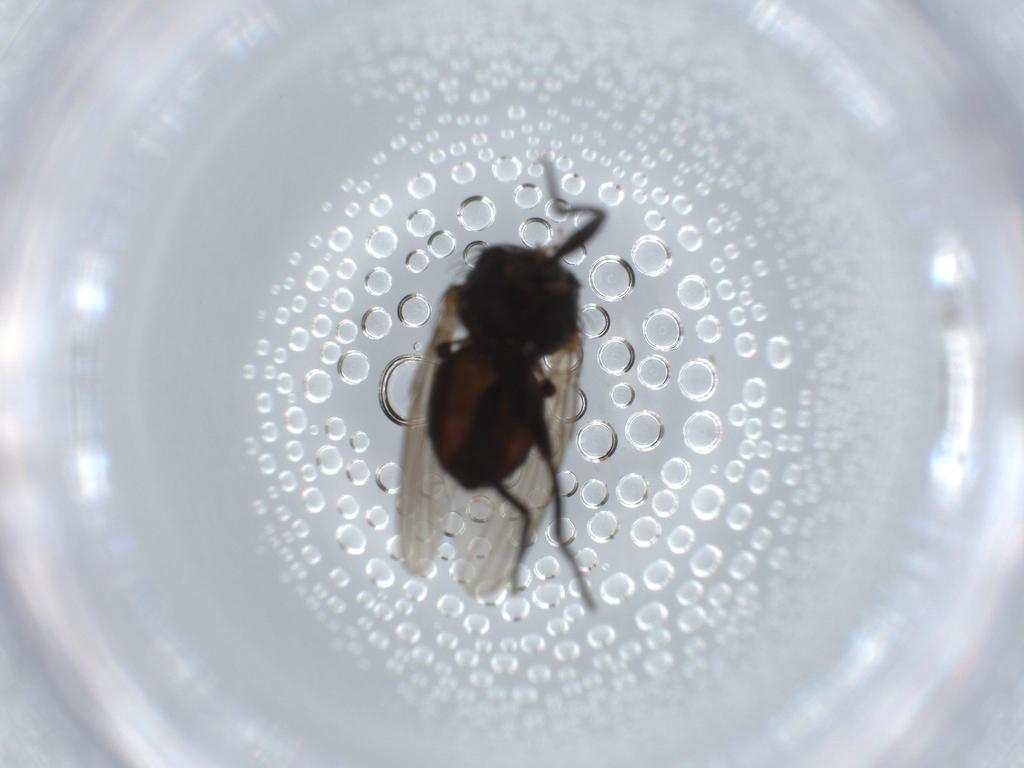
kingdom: Animalia
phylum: Arthropoda
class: Insecta
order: Diptera
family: Milichiidae
